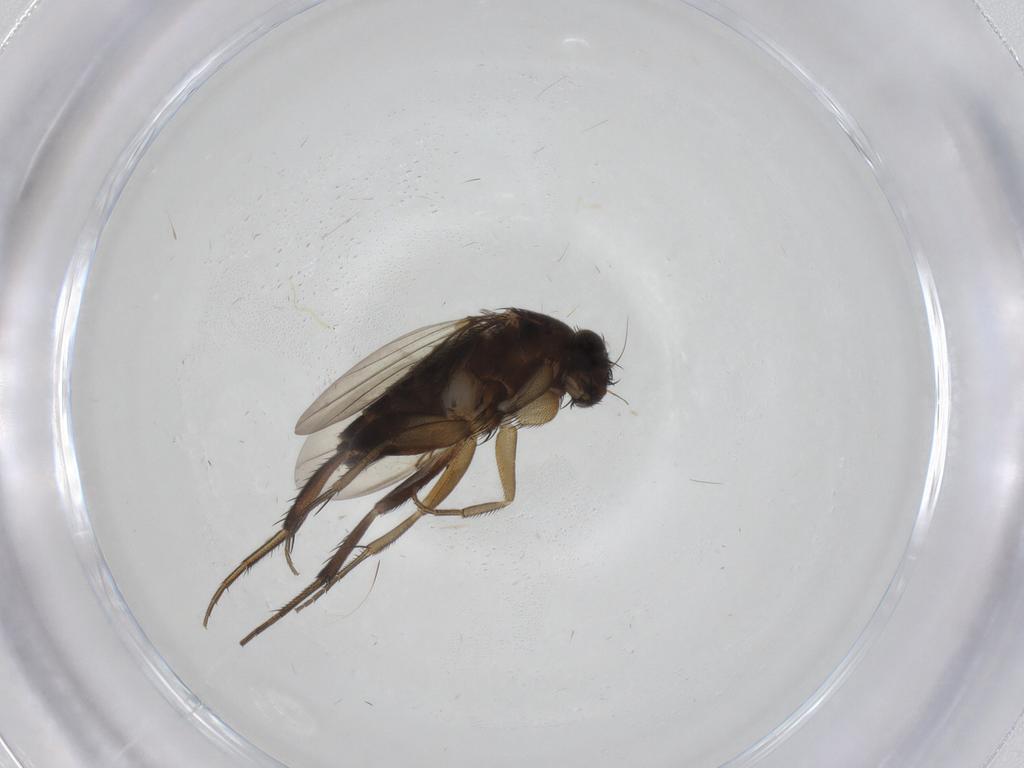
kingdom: Animalia
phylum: Arthropoda
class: Insecta
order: Diptera
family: Phoridae
